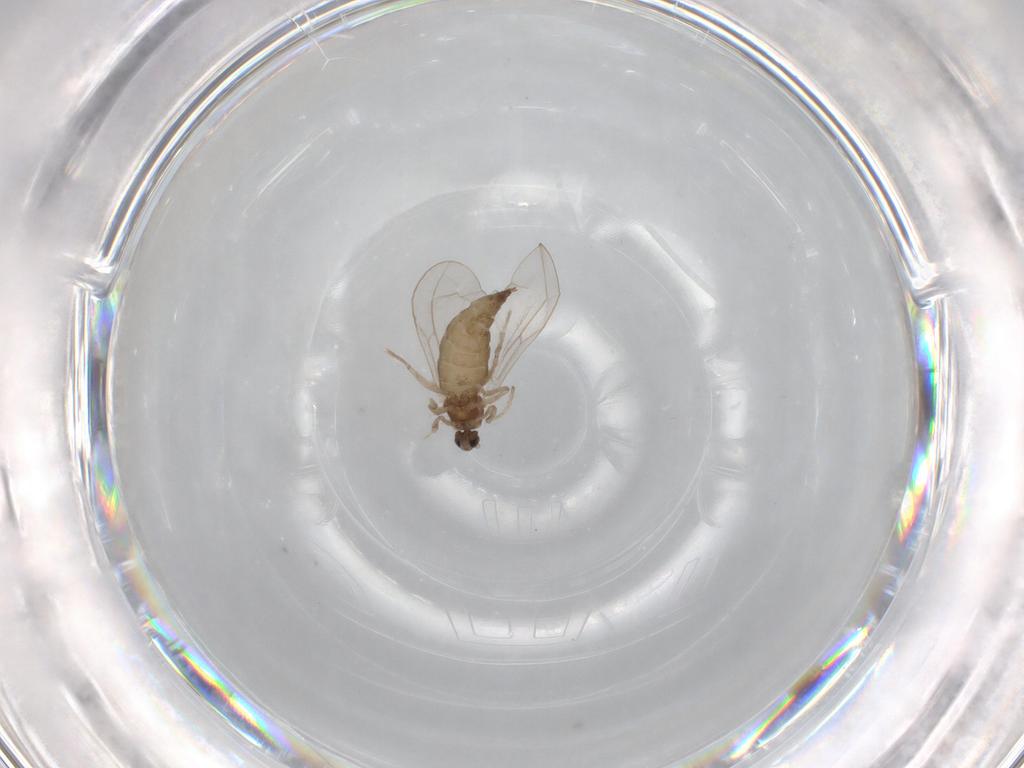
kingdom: Animalia
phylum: Arthropoda
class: Insecta
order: Diptera
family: Cecidomyiidae
